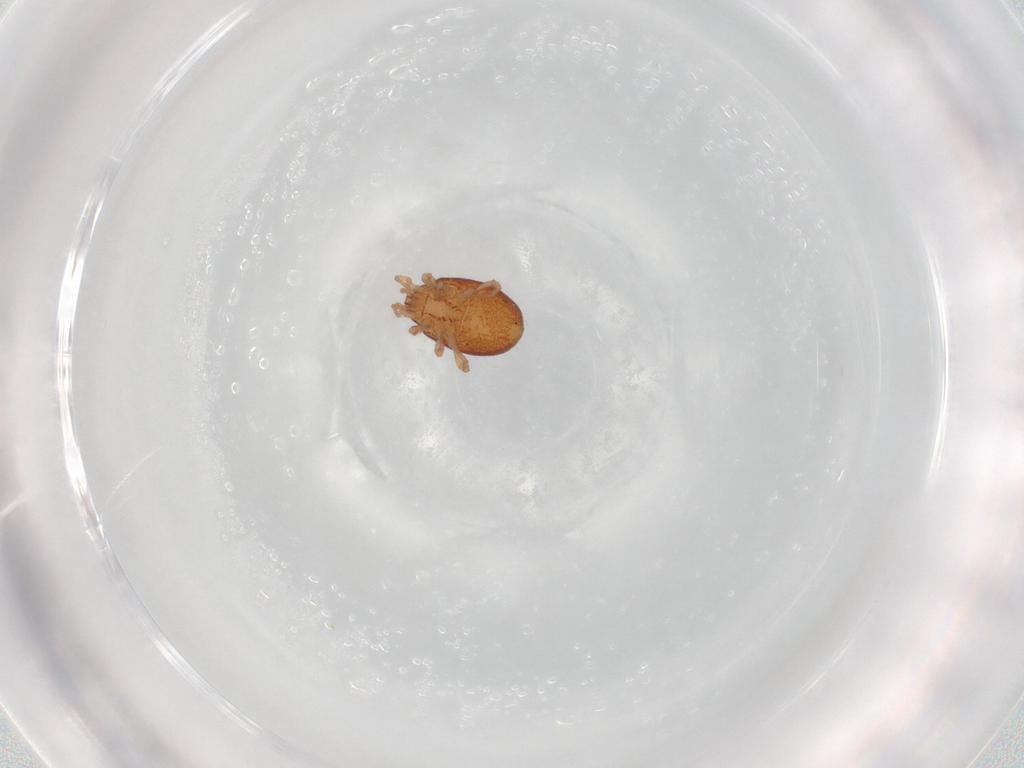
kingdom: Animalia
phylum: Arthropoda
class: Arachnida
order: Mesostigmata
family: Parasitidae
